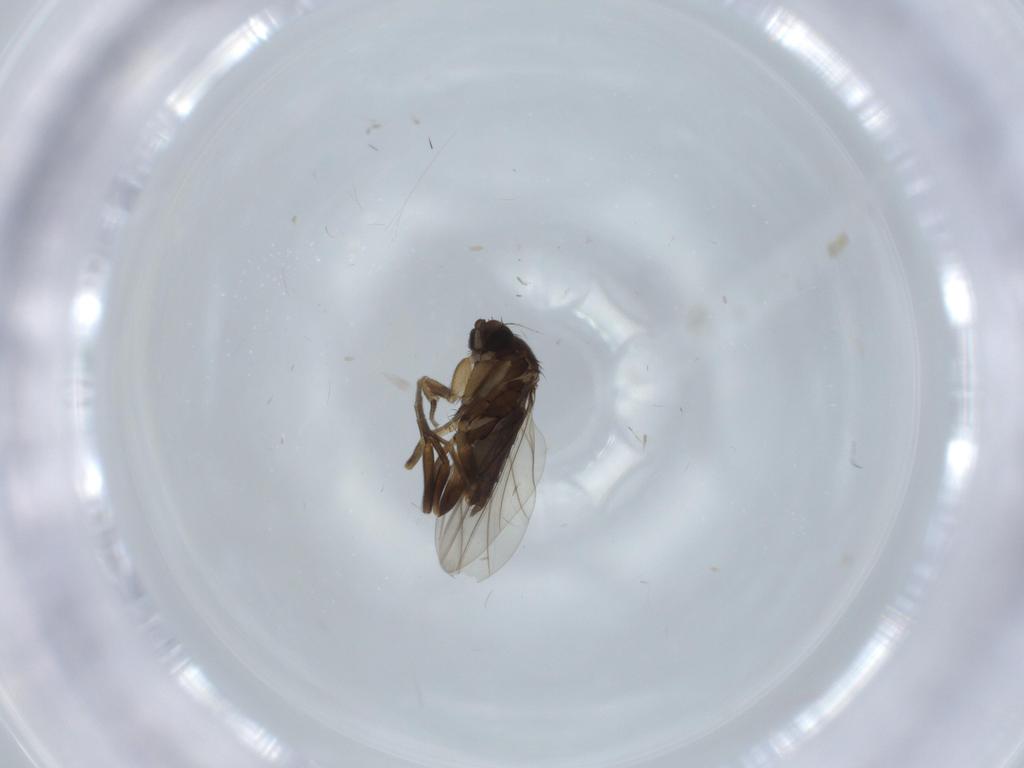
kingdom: Animalia
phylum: Arthropoda
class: Insecta
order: Diptera
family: Phoridae
